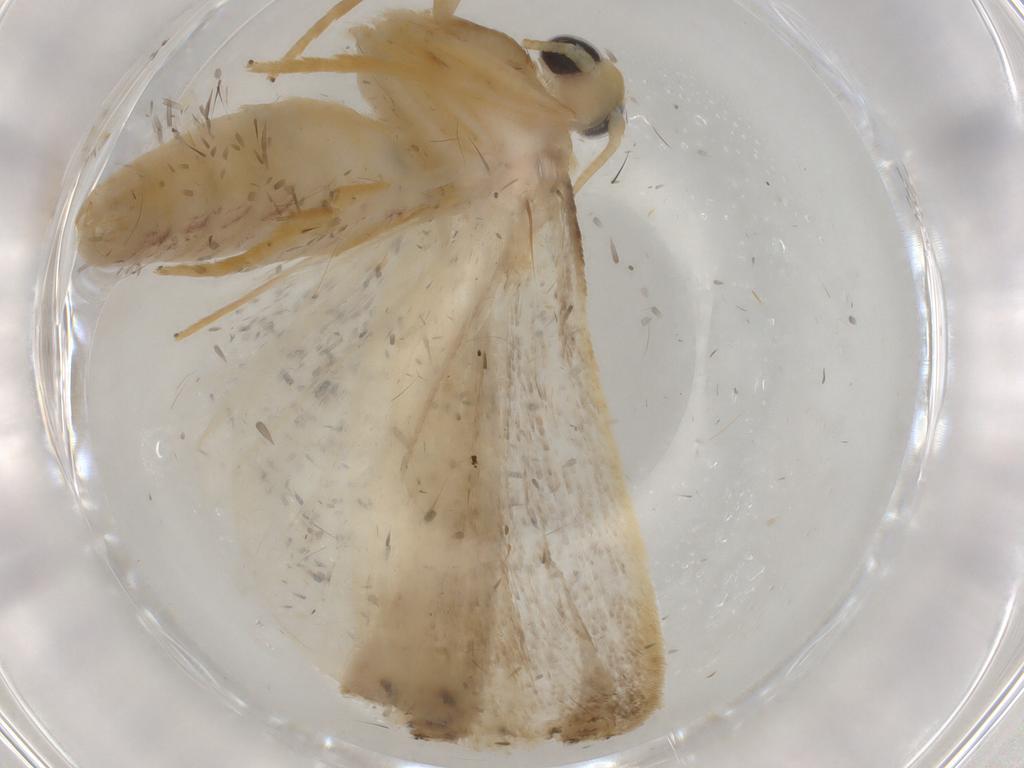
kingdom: Animalia
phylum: Arthropoda
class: Insecta
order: Lepidoptera
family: Crambidae
